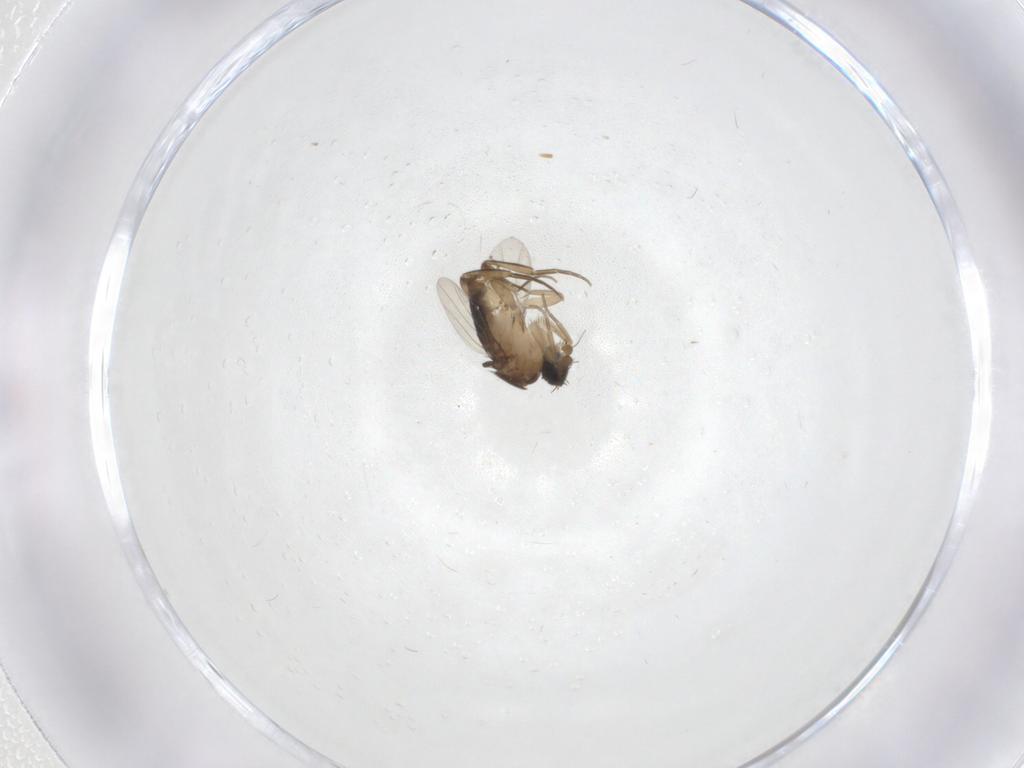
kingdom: Animalia
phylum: Arthropoda
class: Insecta
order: Diptera
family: Phoridae
